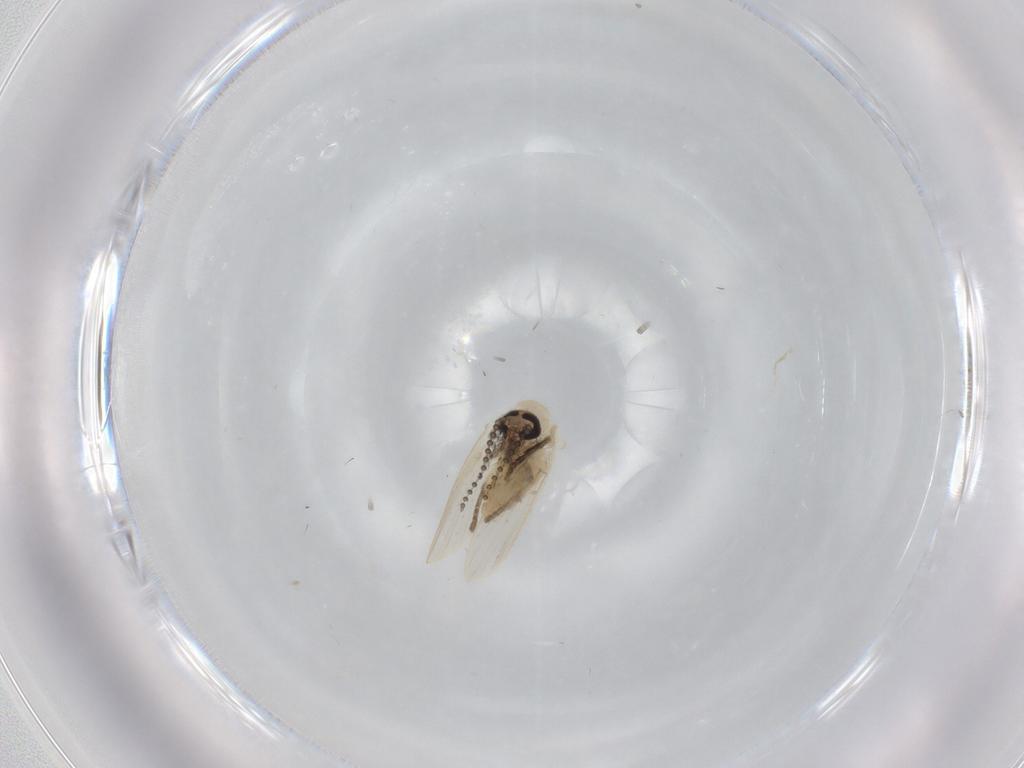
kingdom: Animalia
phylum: Arthropoda
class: Insecta
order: Diptera
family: Psychodidae
